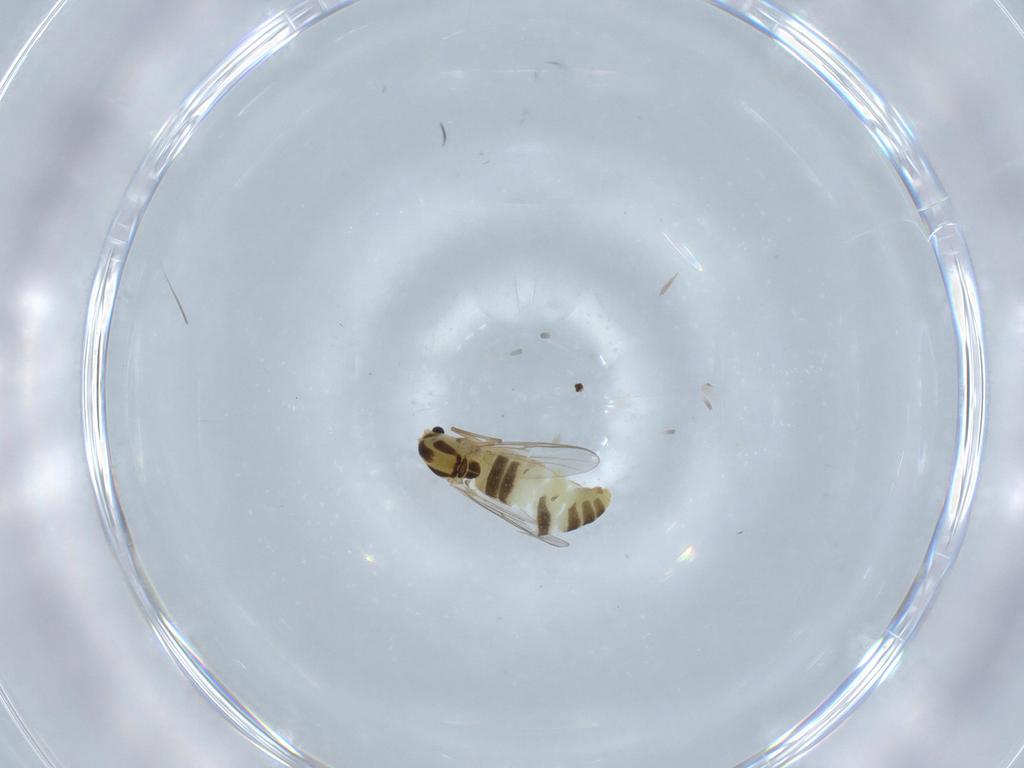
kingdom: Animalia
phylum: Arthropoda
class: Insecta
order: Diptera
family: Chironomidae
